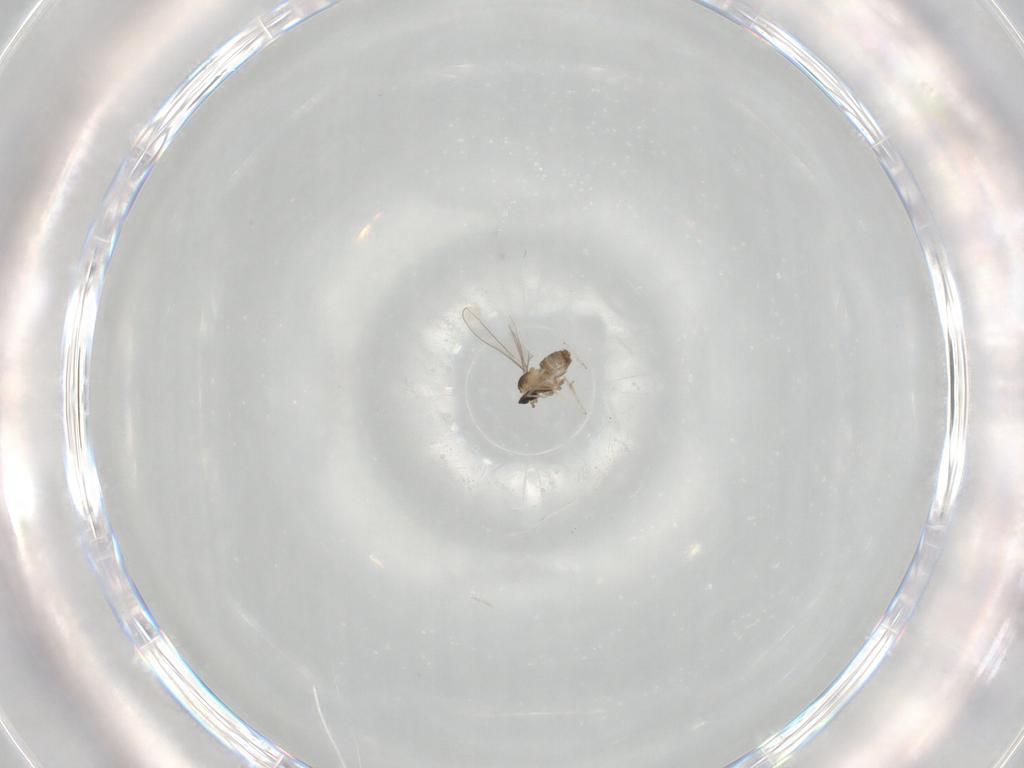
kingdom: Animalia
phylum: Arthropoda
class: Insecta
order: Diptera
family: Cecidomyiidae
